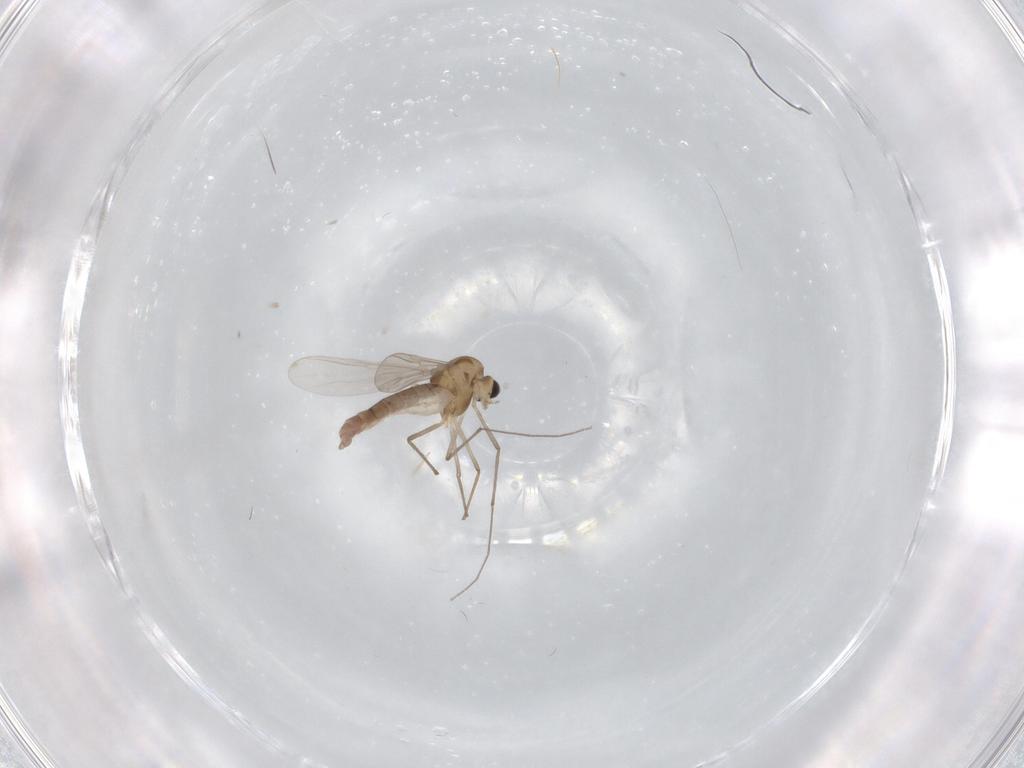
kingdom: Animalia
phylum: Arthropoda
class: Insecta
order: Diptera
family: Chironomidae
